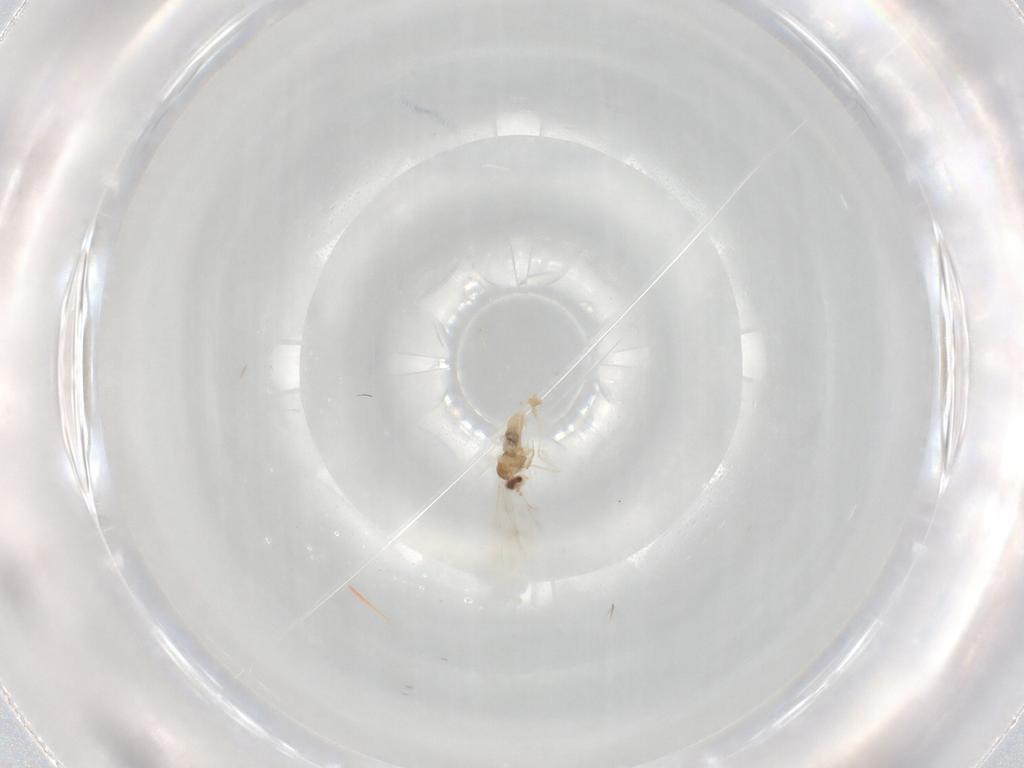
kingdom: Animalia
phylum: Arthropoda
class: Insecta
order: Diptera
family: Cecidomyiidae
